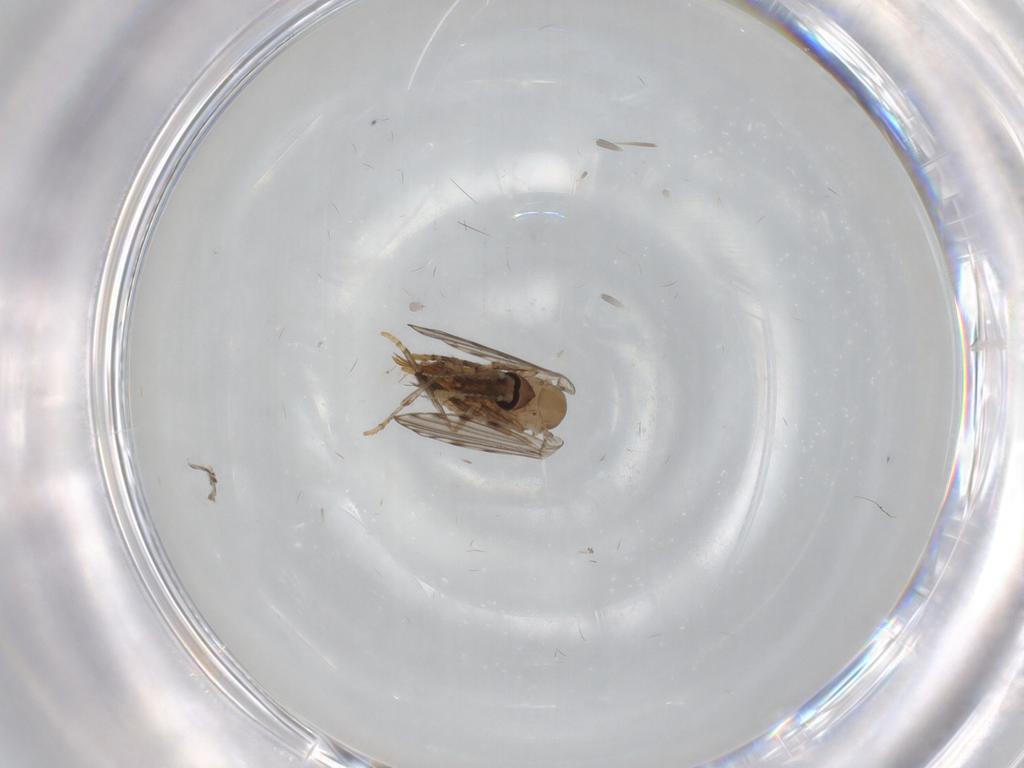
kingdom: Animalia
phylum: Arthropoda
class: Insecta
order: Diptera
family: Psychodidae
